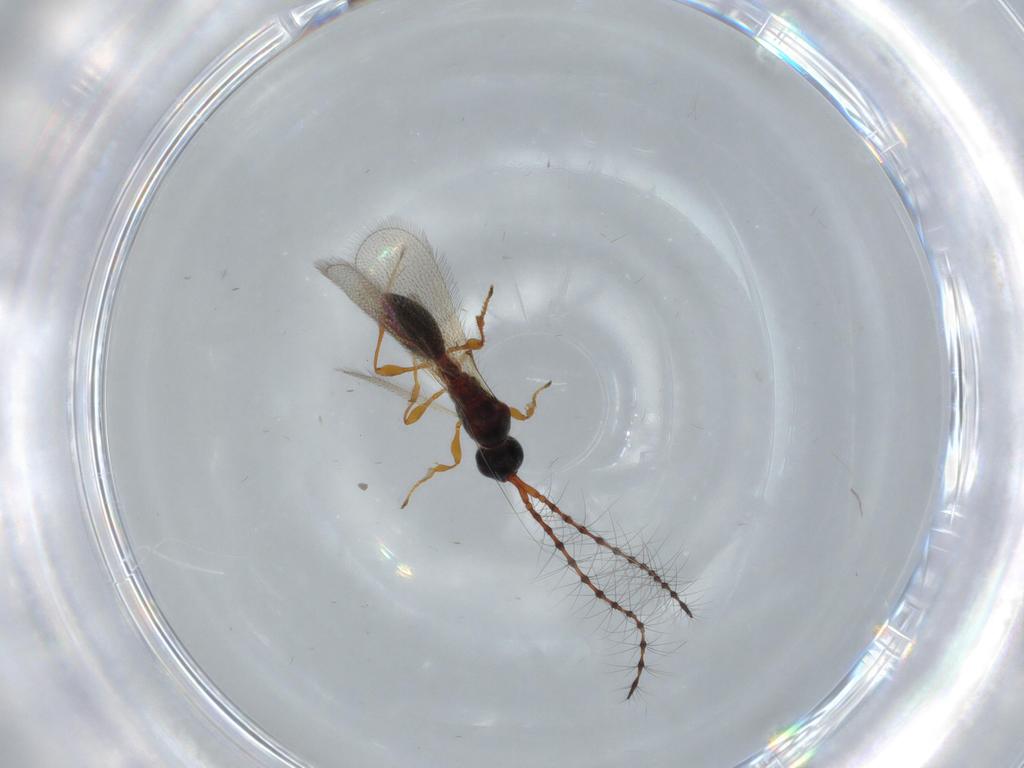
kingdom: Animalia
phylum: Arthropoda
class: Insecta
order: Hymenoptera
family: Diapriidae
